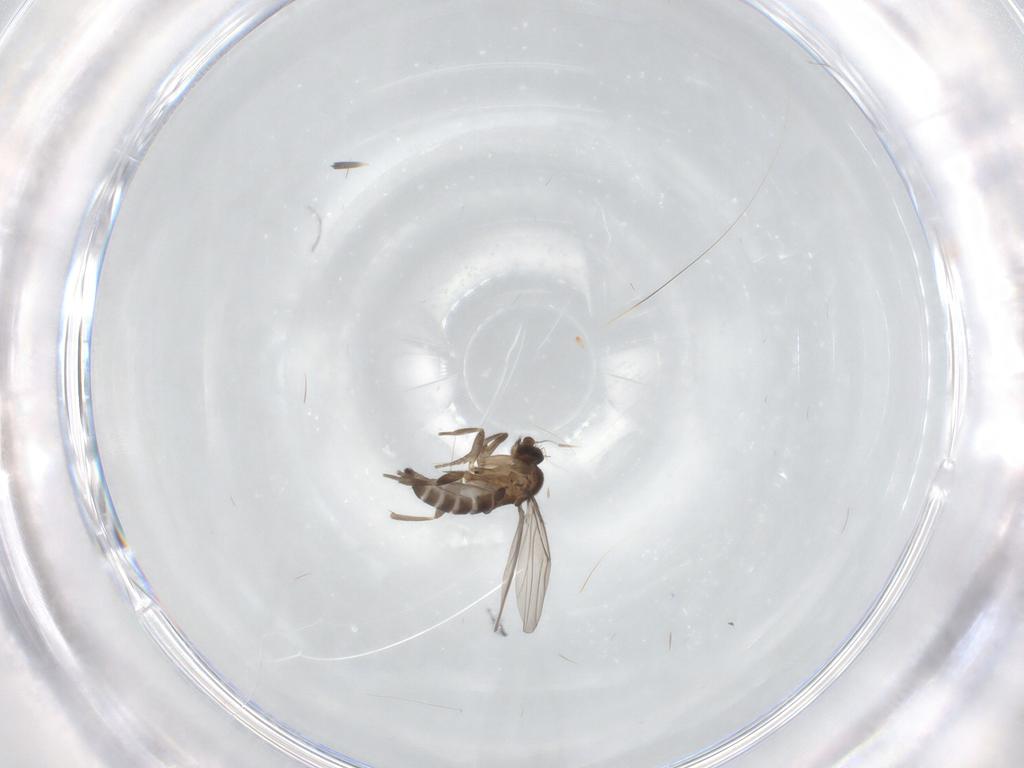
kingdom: Animalia
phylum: Arthropoda
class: Insecta
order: Diptera
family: Phoridae
